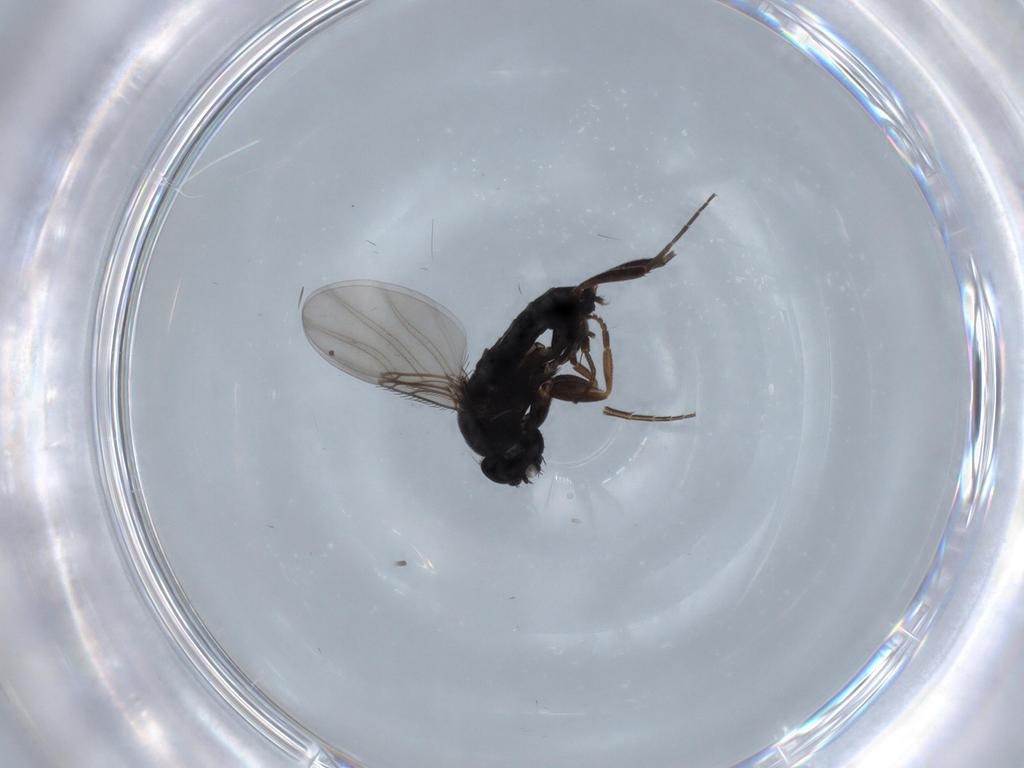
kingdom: Animalia
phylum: Arthropoda
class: Insecta
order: Diptera
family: Phoridae
